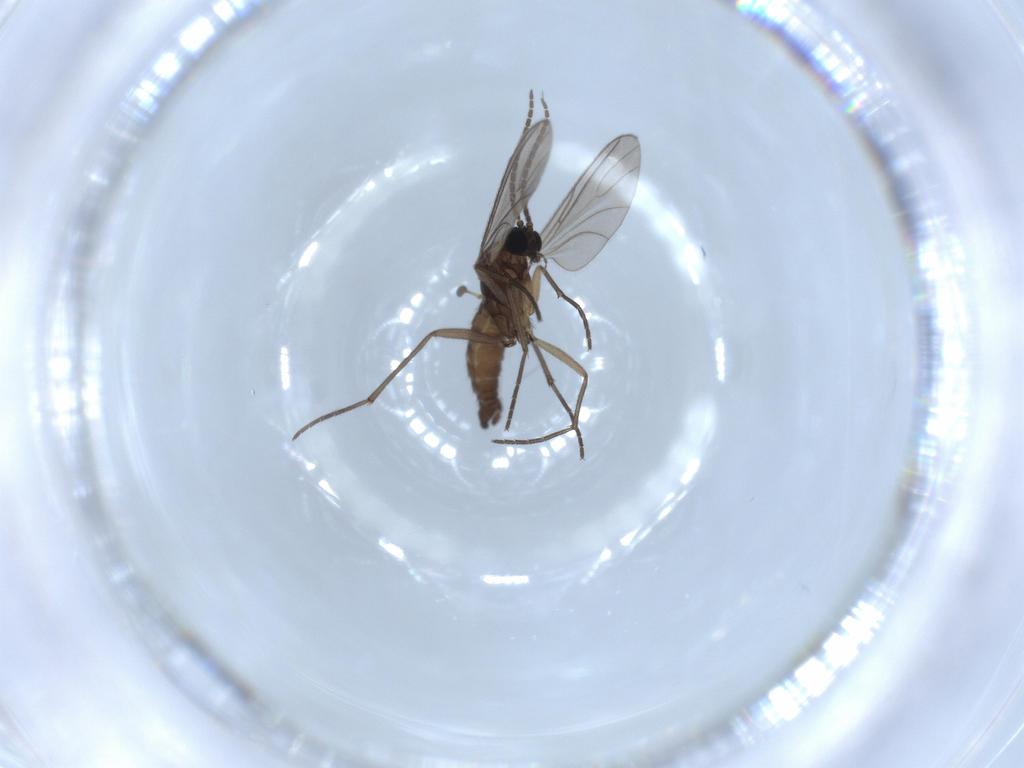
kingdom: Animalia
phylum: Arthropoda
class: Insecta
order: Diptera
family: Sciaridae
